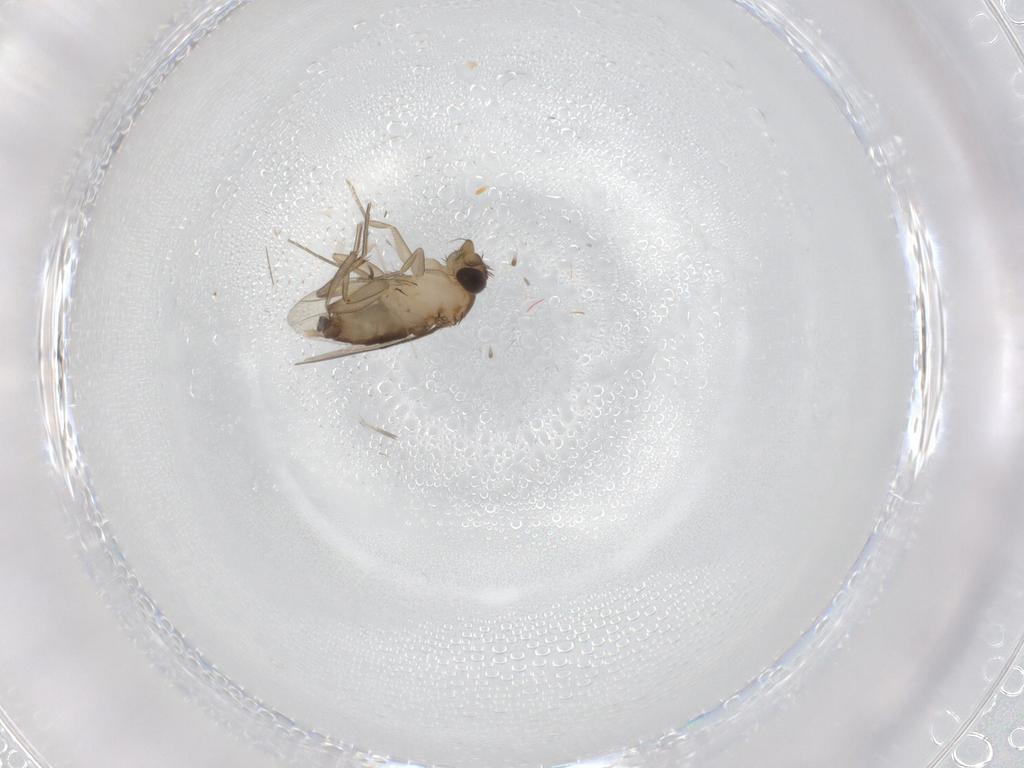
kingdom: Animalia
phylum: Arthropoda
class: Insecta
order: Diptera
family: Phoridae
